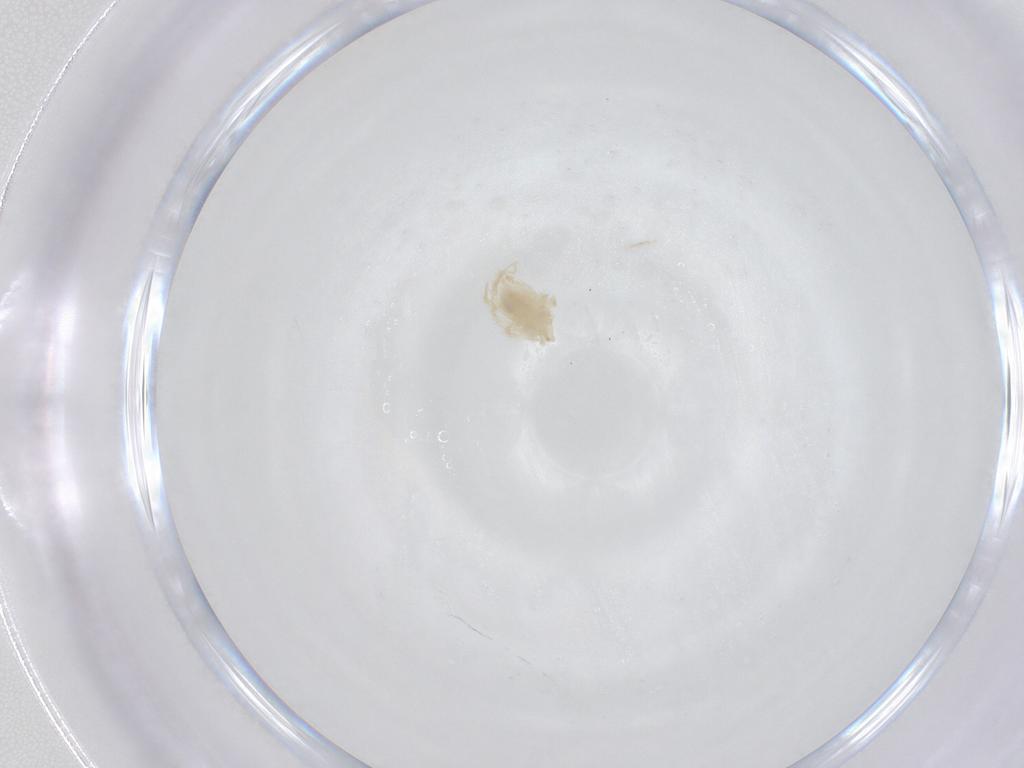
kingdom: Animalia
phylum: Arthropoda
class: Arachnida
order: Trombidiformes
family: Anystidae
